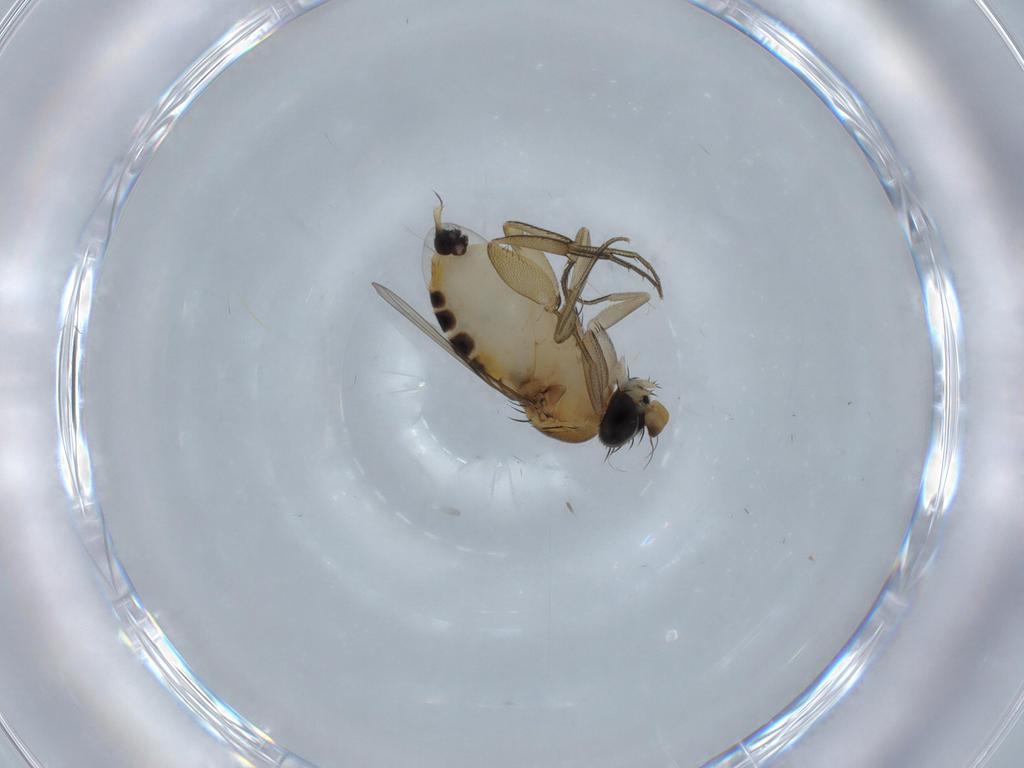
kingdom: Animalia
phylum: Arthropoda
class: Insecta
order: Diptera
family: Phoridae
